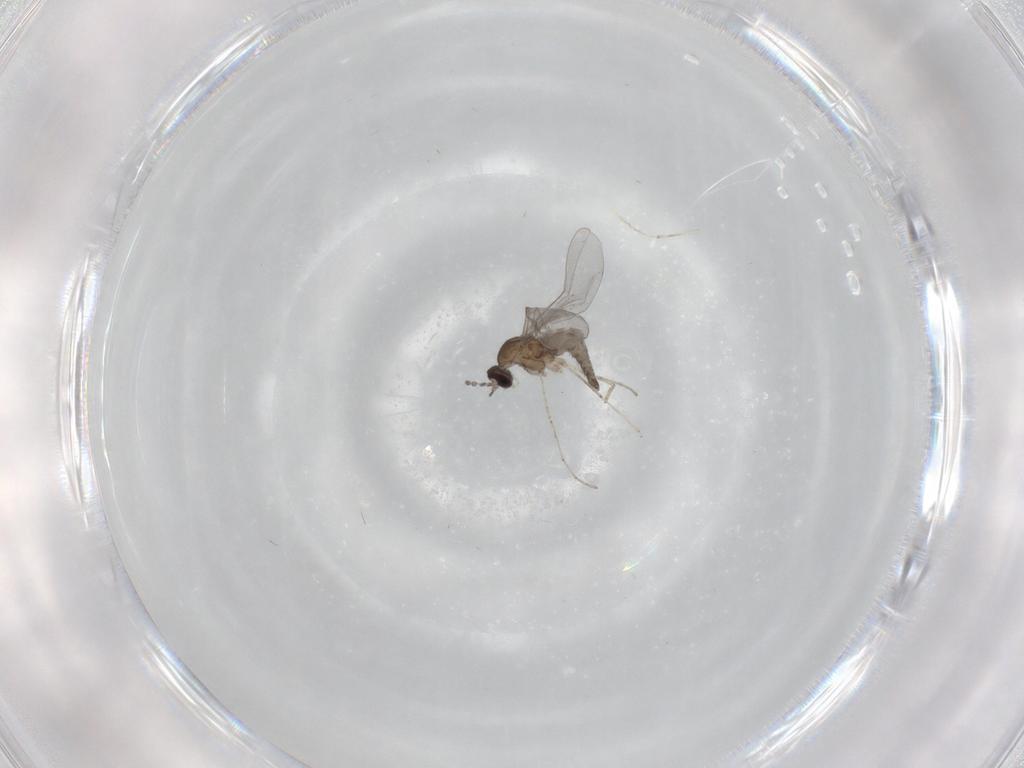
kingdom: Animalia
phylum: Arthropoda
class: Insecta
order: Diptera
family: Cecidomyiidae
